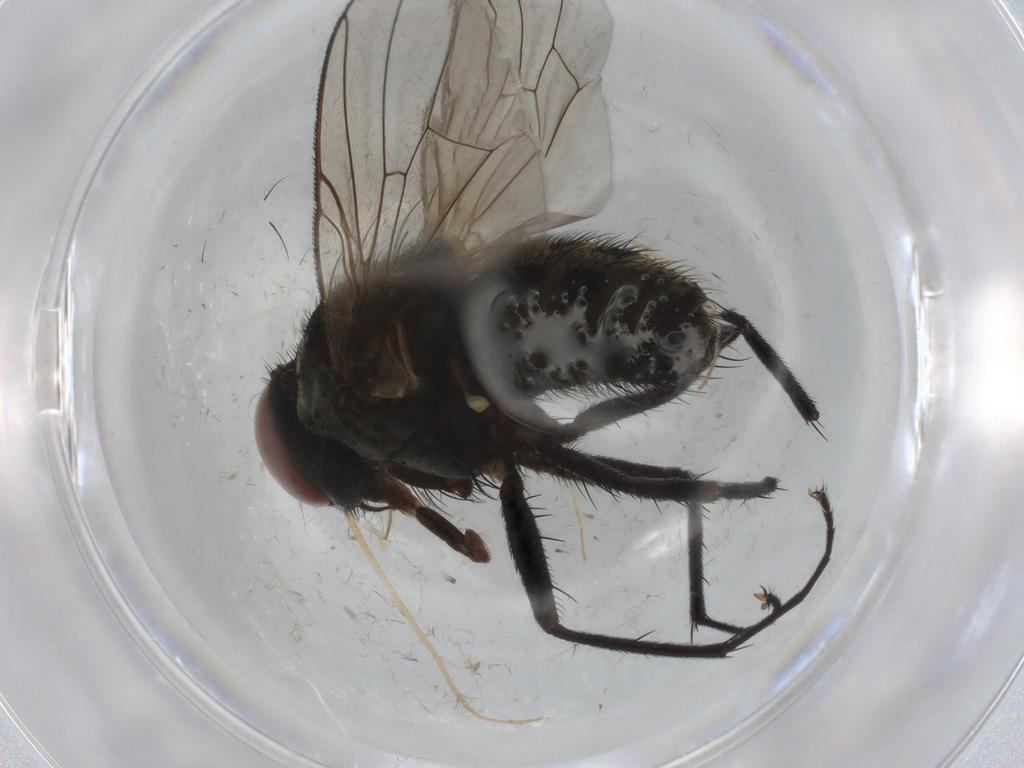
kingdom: Animalia
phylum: Arthropoda
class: Insecta
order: Diptera
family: Muscidae
